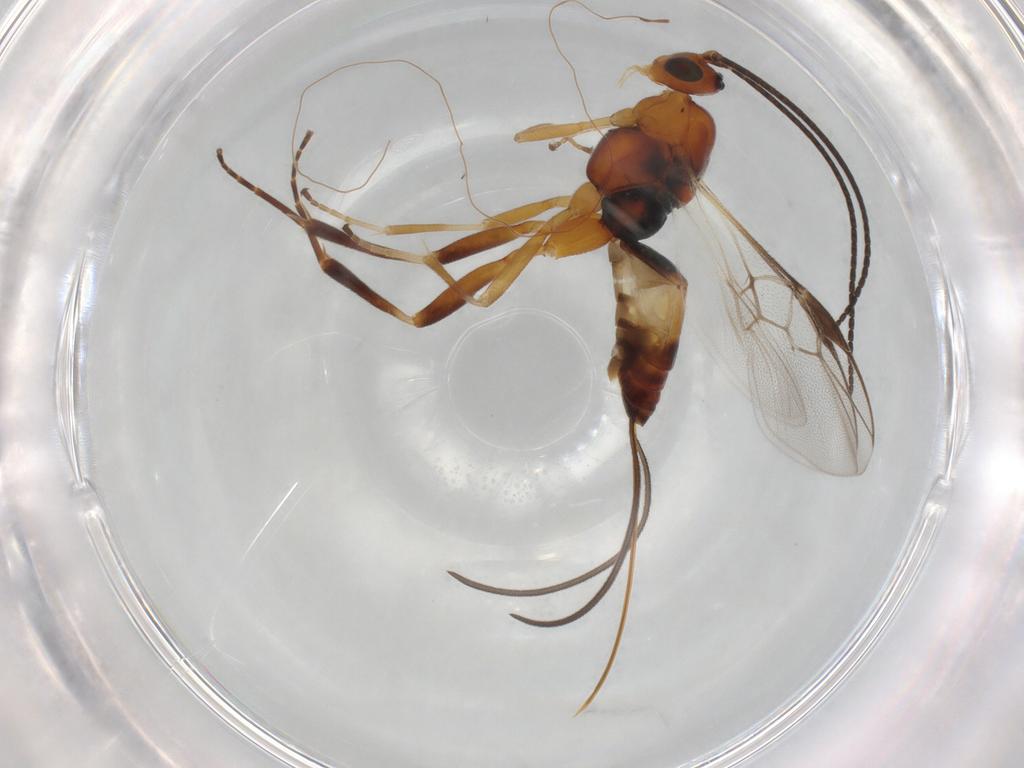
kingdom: Animalia
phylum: Arthropoda
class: Insecta
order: Hymenoptera
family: Braconidae
